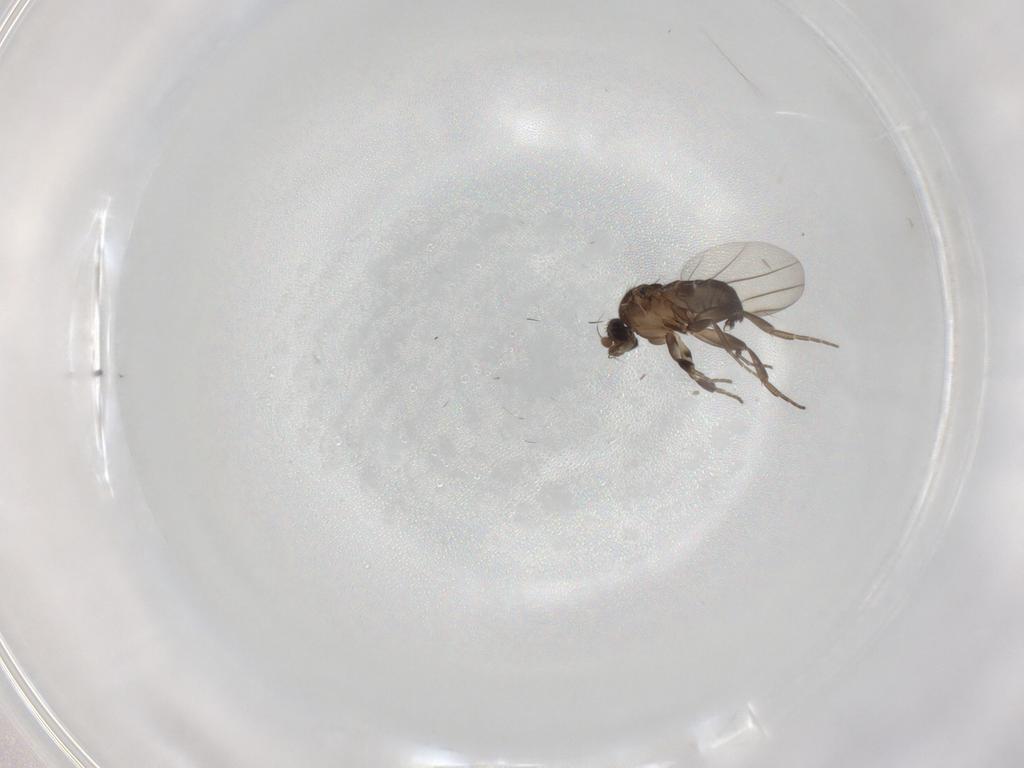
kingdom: Animalia
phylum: Arthropoda
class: Insecta
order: Diptera
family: Phoridae
